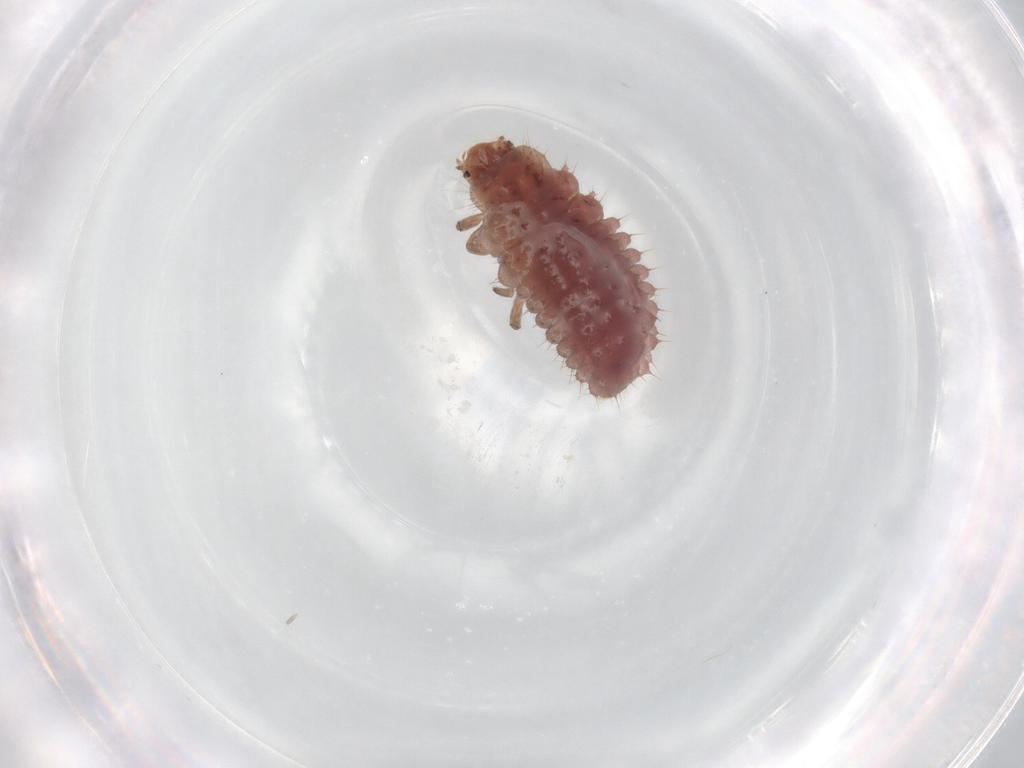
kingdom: Animalia
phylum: Arthropoda
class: Insecta
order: Coleoptera
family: Coccinellidae
